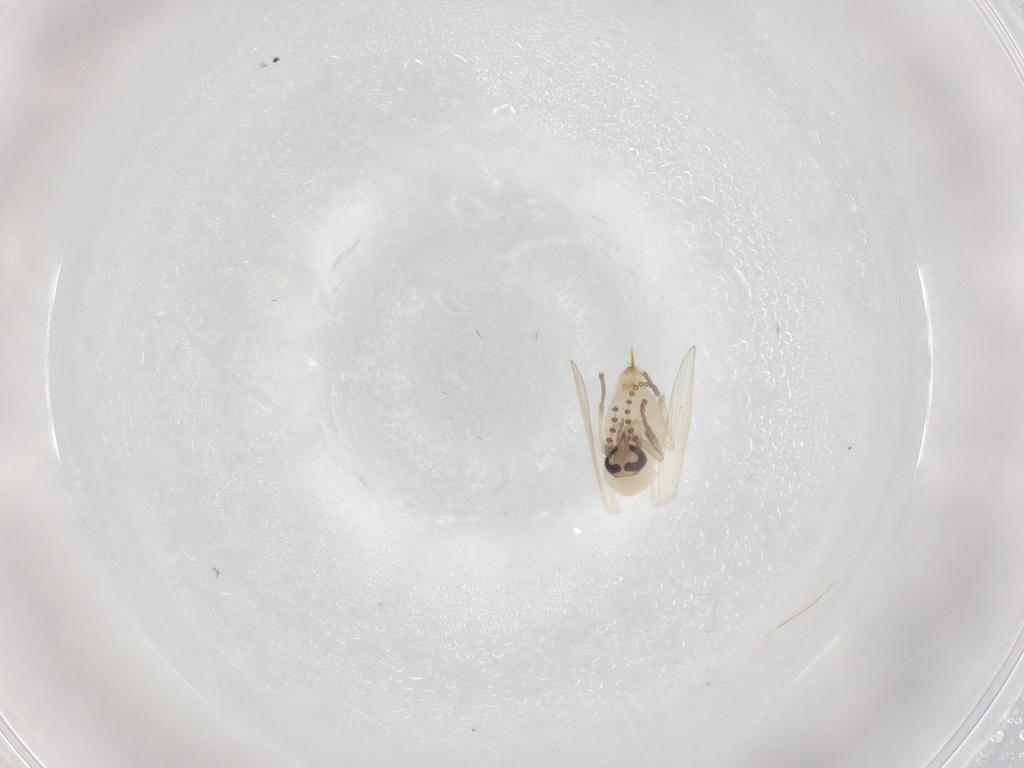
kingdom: Animalia
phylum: Arthropoda
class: Insecta
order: Diptera
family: Psychodidae
